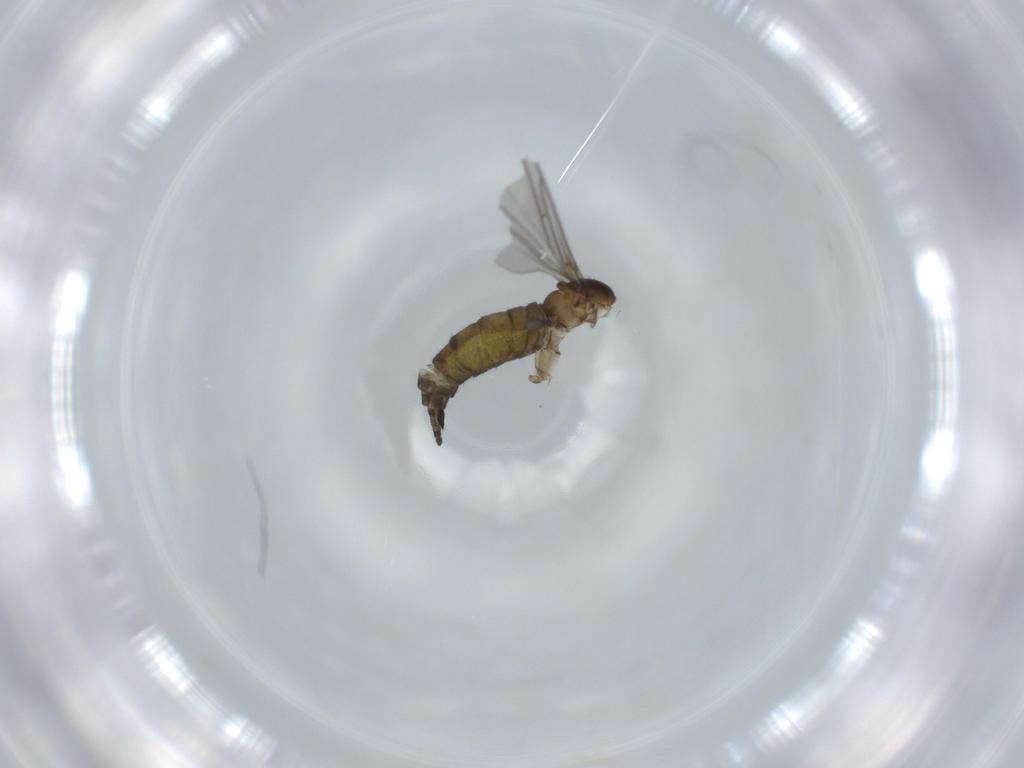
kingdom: Animalia
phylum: Arthropoda
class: Insecta
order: Diptera
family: Sciaridae
